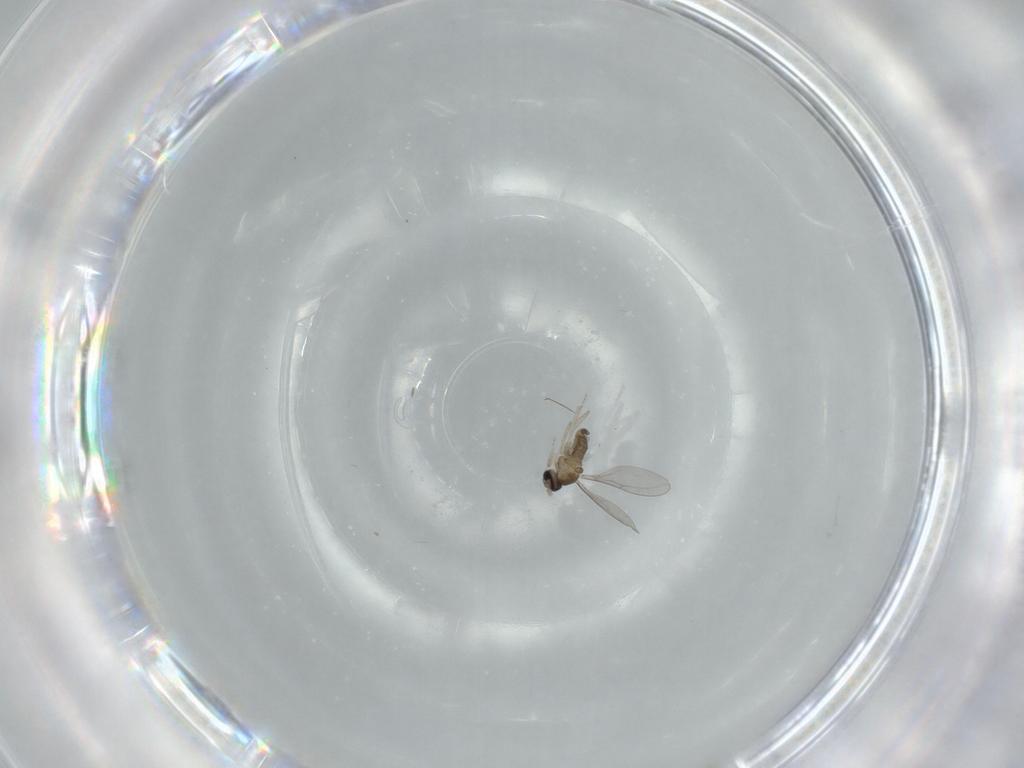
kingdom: Animalia
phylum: Arthropoda
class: Insecta
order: Diptera
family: Cecidomyiidae
